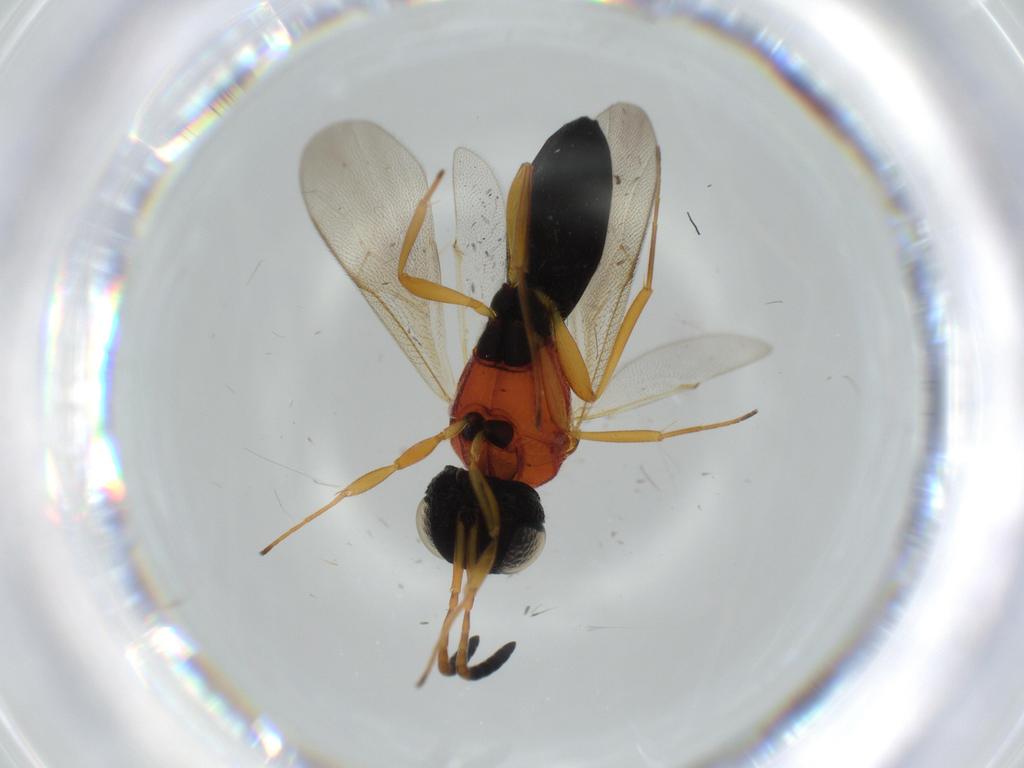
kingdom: Animalia
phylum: Arthropoda
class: Insecta
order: Hymenoptera
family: Scelionidae
